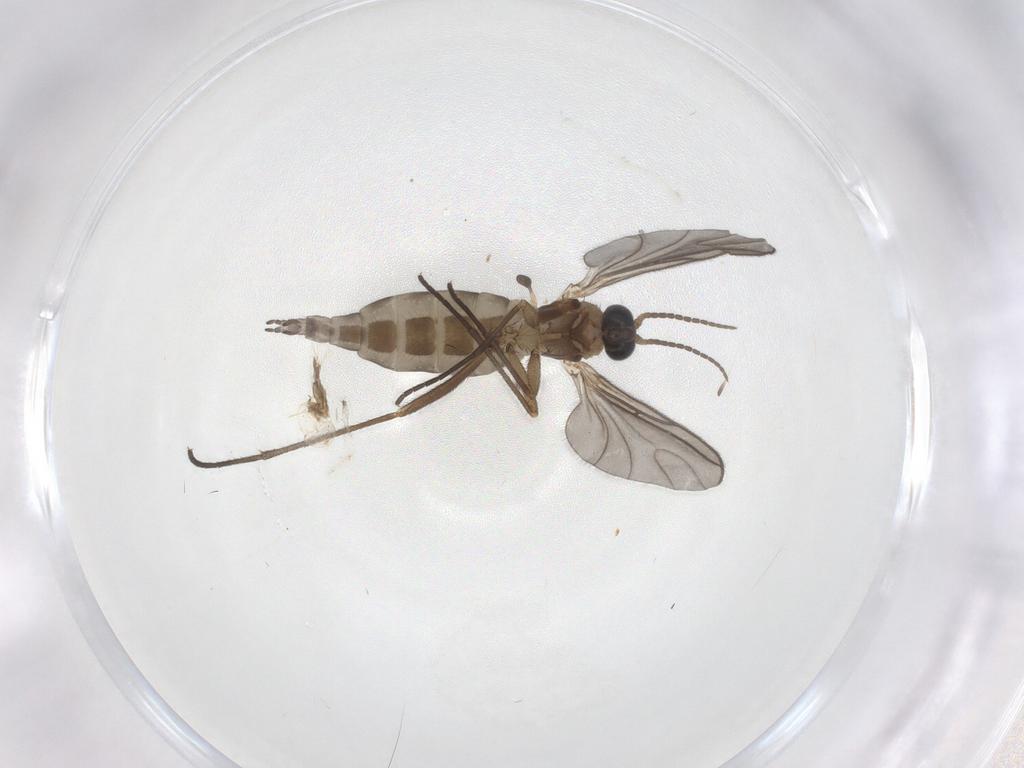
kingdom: Animalia
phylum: Arthropoda
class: Insecta
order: Diptera
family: Sciaridae
